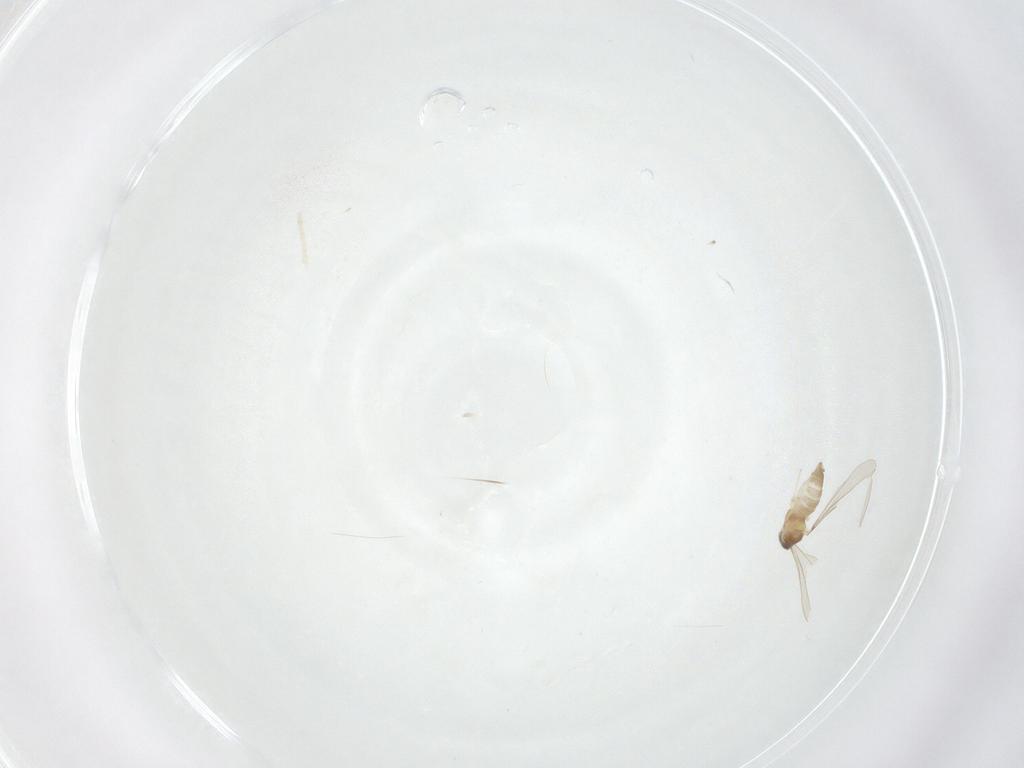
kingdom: Animalia
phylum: Arthropoda
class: Insecta
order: Diptera
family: Cecidomyiidae
